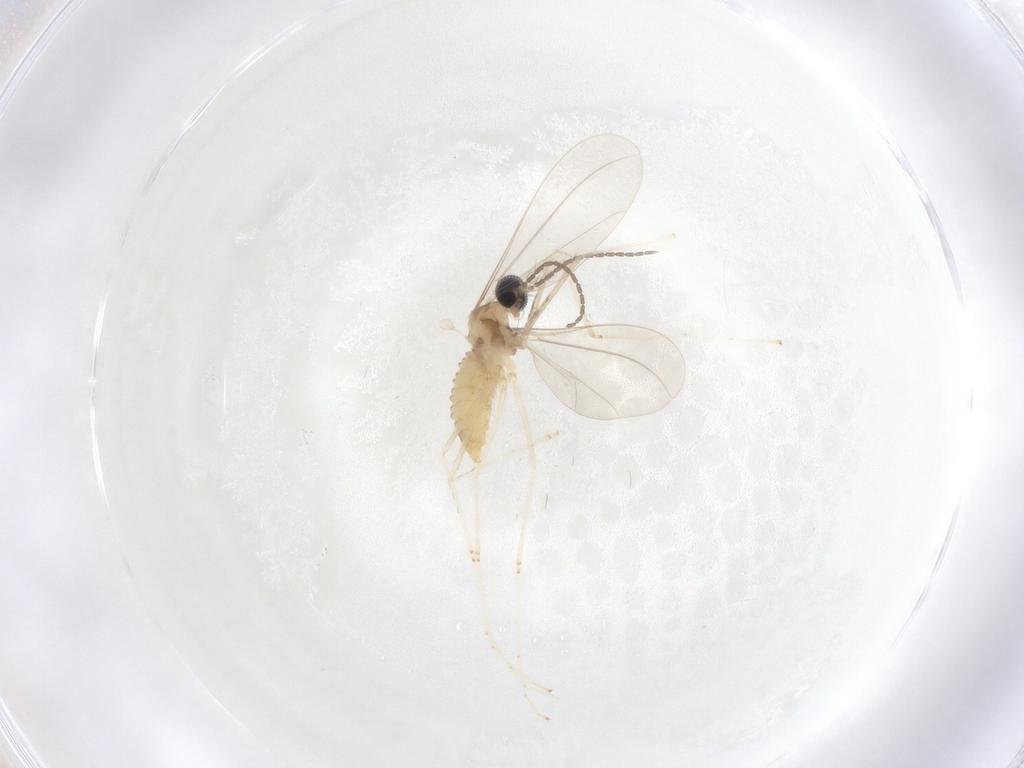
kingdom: Animalia
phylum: Arthropoda
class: Insecta
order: Diptera
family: Cecidomyiidae
